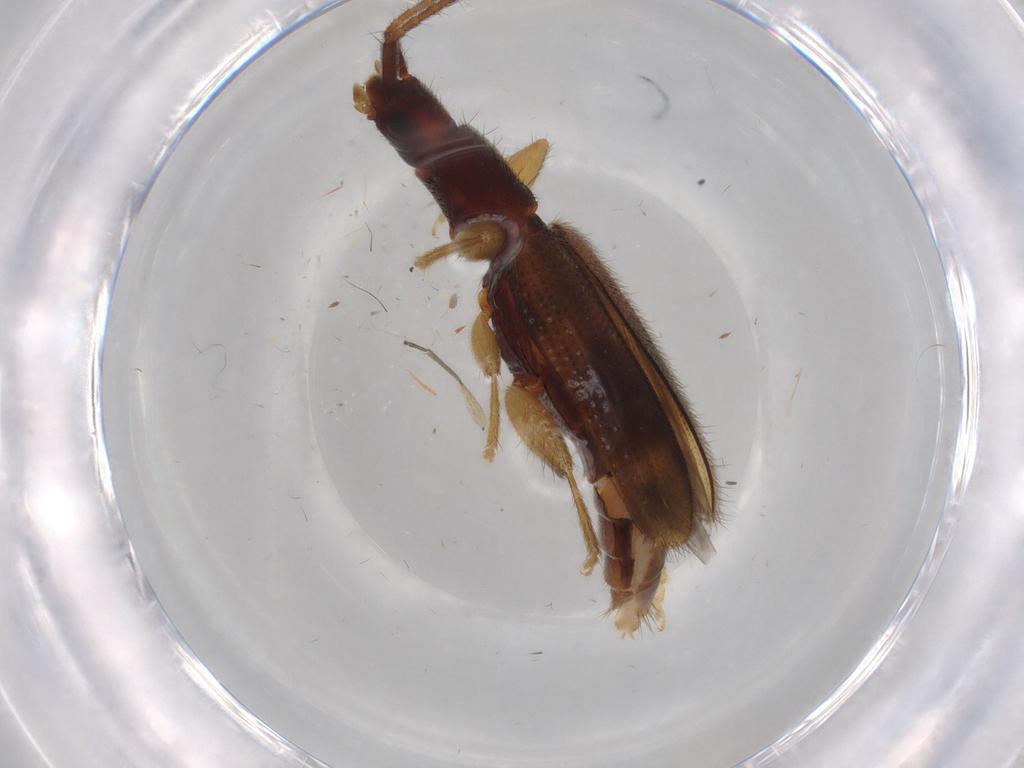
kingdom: Animalia
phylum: Arthropoda
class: Insecta
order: Coleoptera
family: Silvanidae
